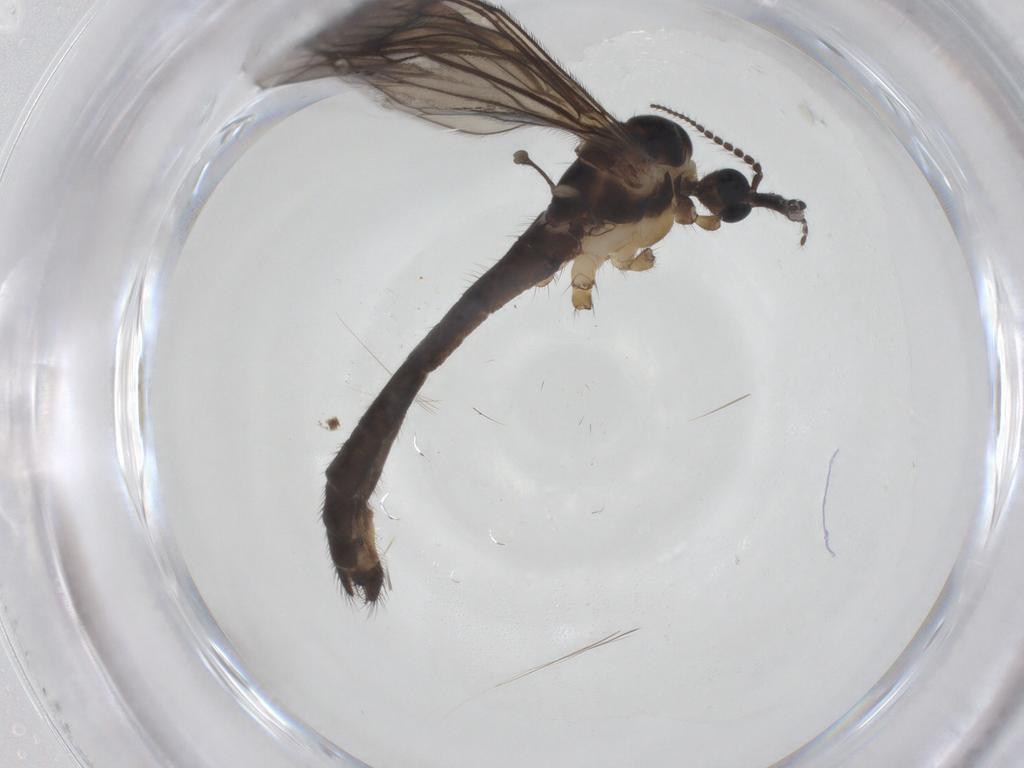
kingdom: Animalia
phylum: Arthropoda
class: Insecta
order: Diptera
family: Limoniidae
